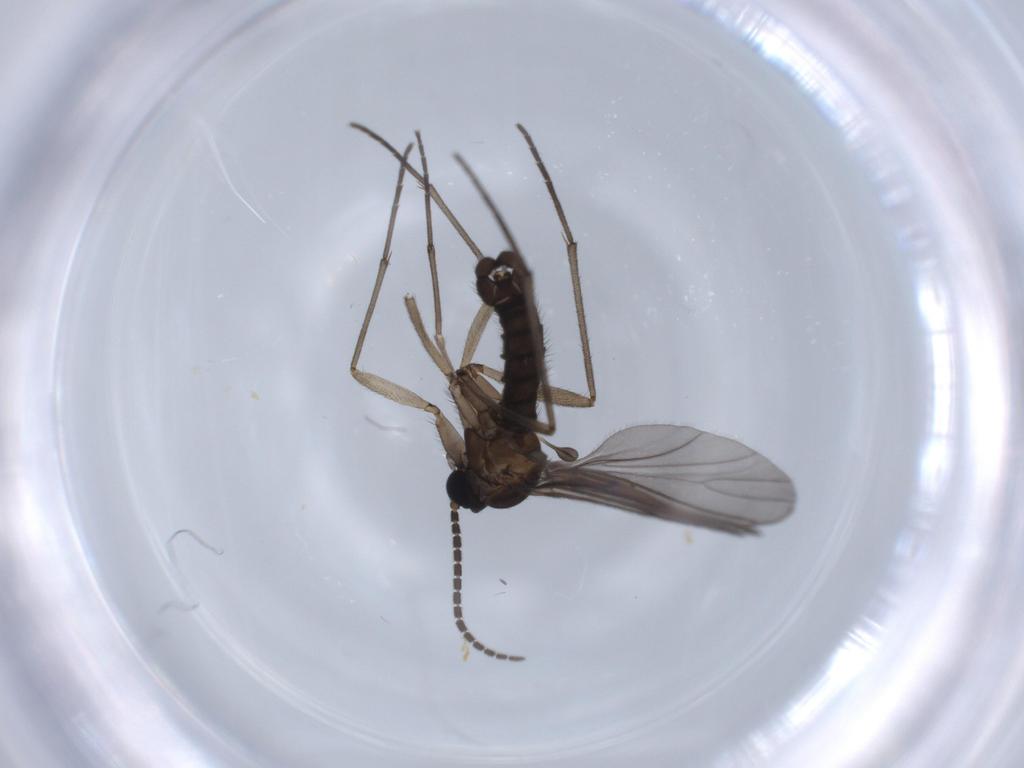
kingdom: Animalia
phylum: Arthropoda
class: Insecta
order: Diptera
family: Sciaridae
